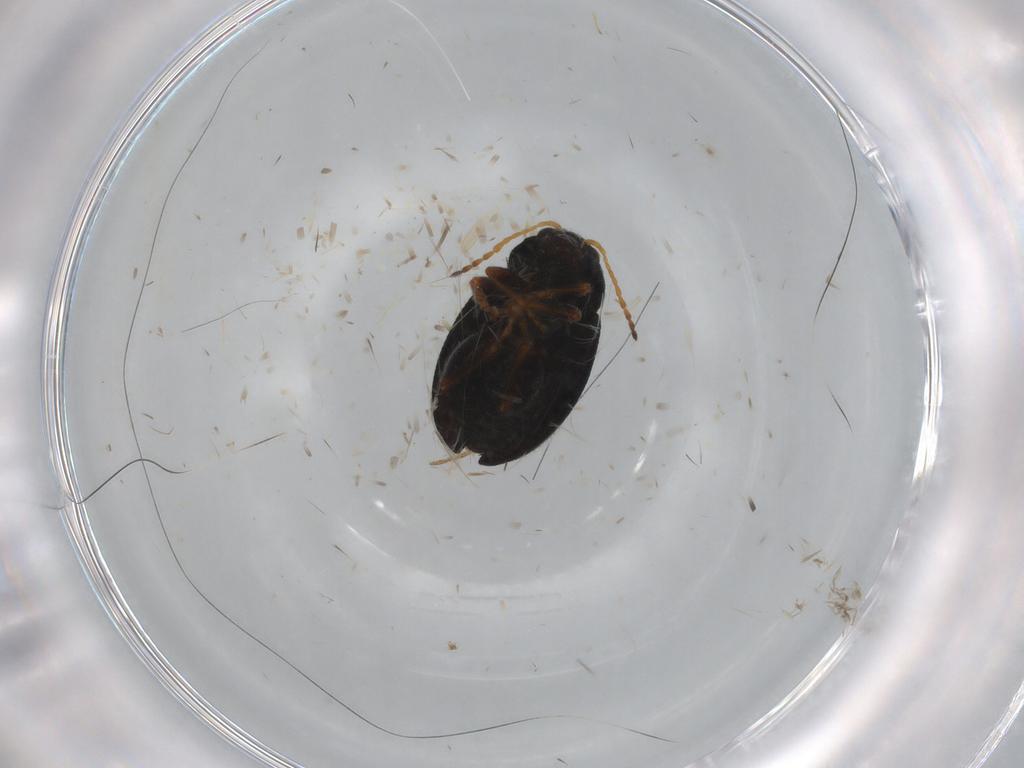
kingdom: Animalia
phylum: Arthropoda
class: Insecta
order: Coleoptera
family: Chrysomelidae
